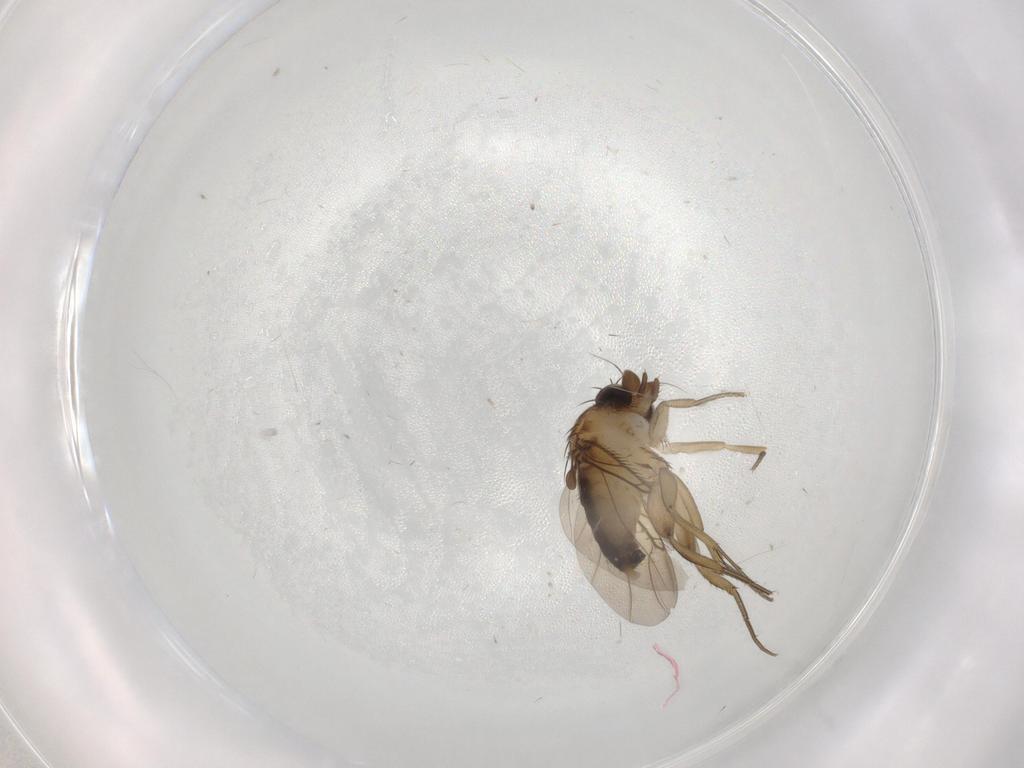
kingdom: Animalia
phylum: Arthropoda
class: Insecta
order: Diptera
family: Phoridae
